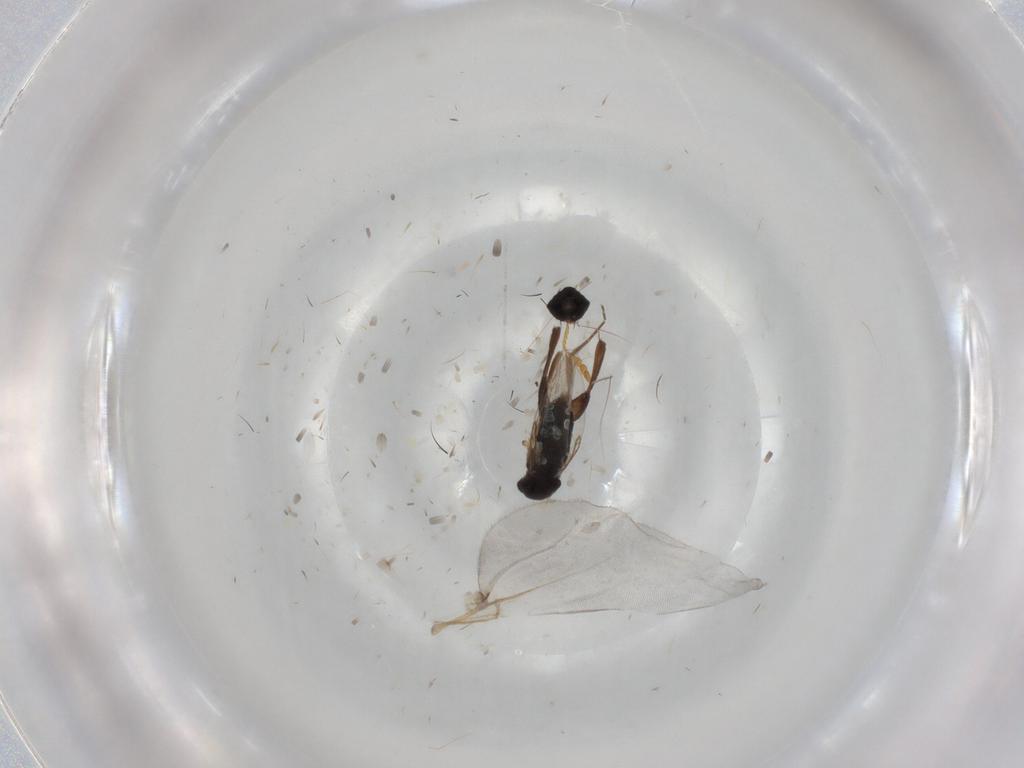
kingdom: Animalia
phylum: Arthropoda
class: Insecta
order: Diptera
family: Phoridae
